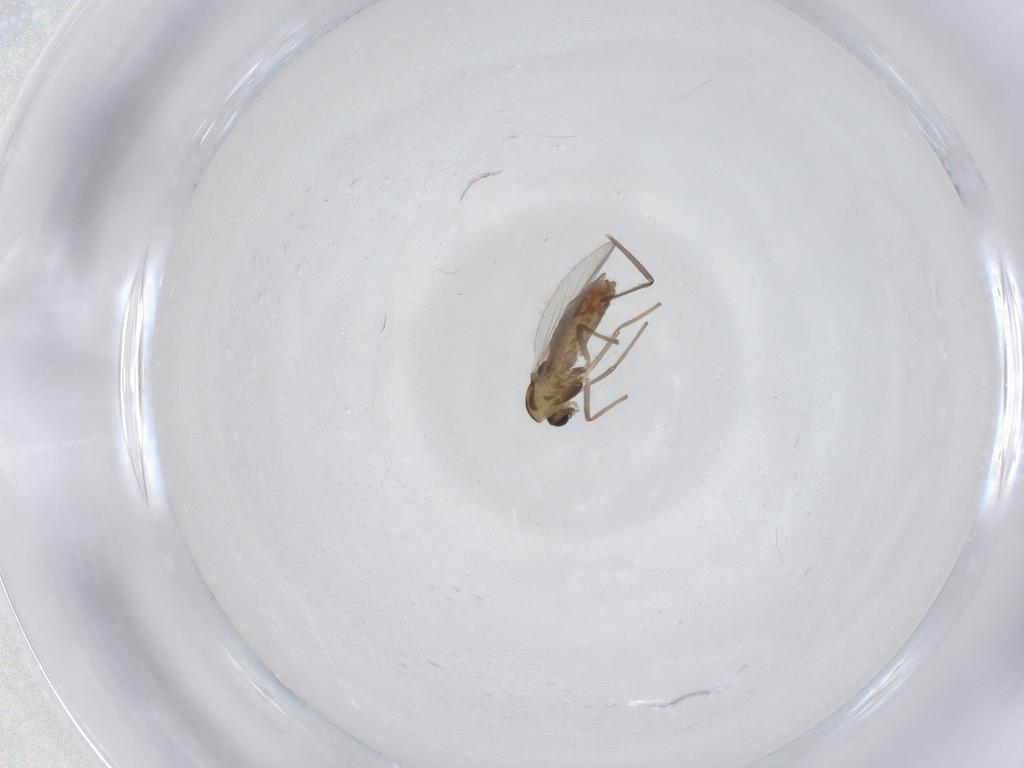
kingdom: Animalia
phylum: Arthropoda
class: Insecta
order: Diptera
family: Chironomidae
